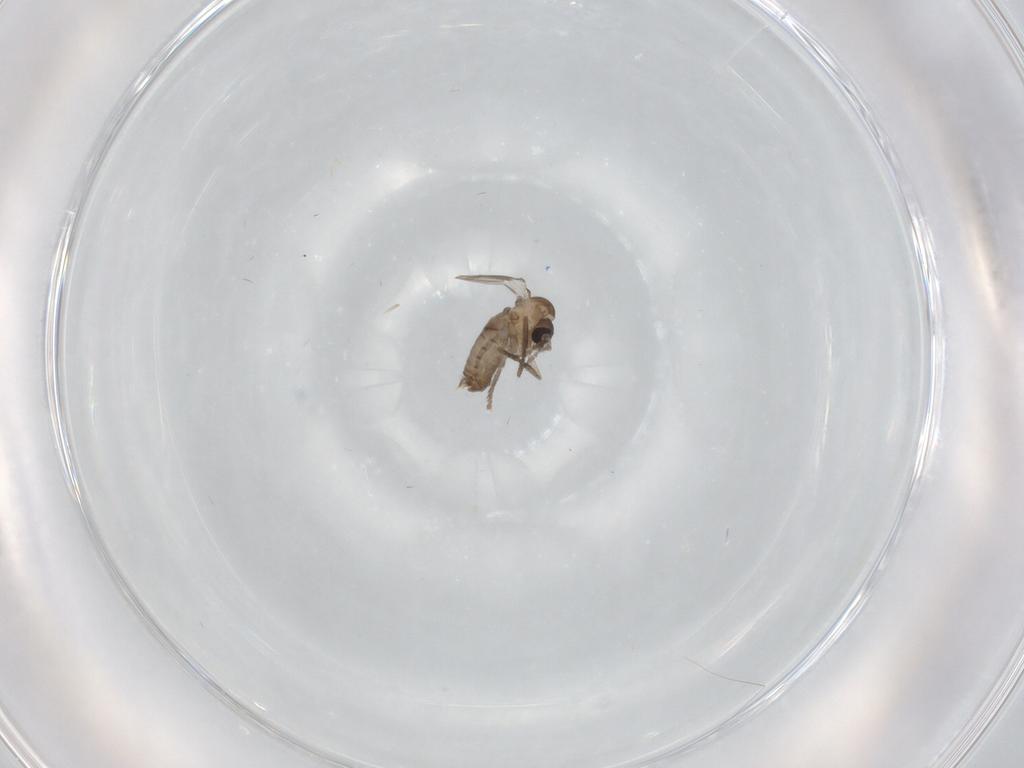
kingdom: Animalia
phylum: Arthropoda
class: Insecta
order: Diptera
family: Psychodidae
